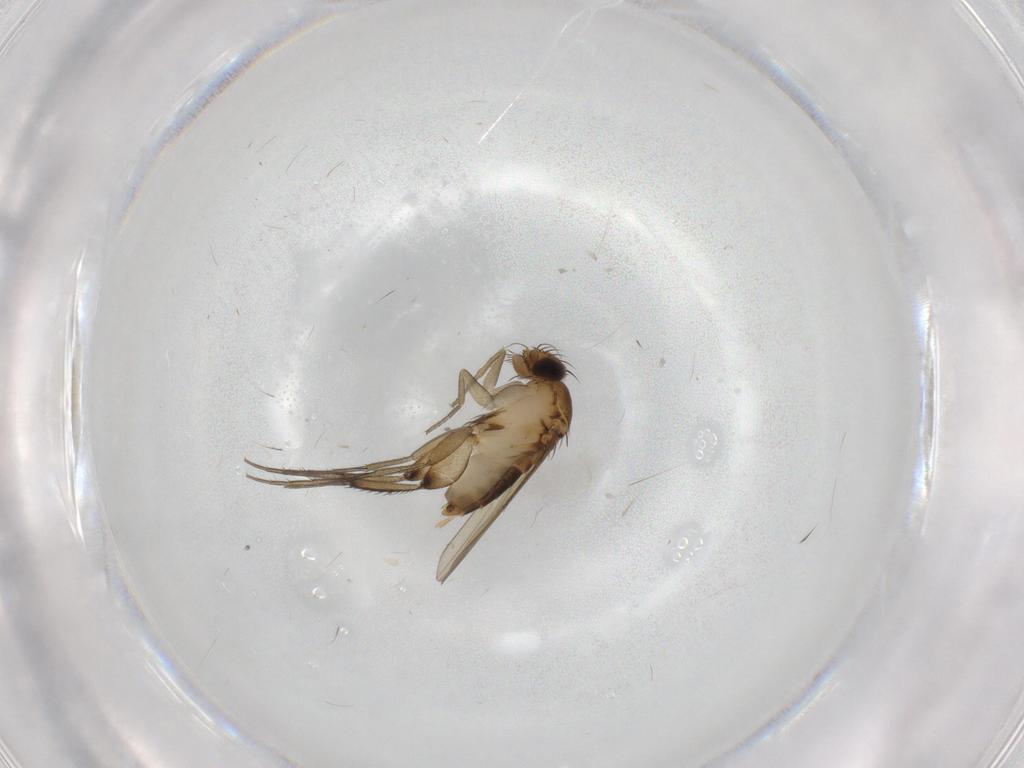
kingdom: Animalia
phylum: Arthropoda
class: Insecta
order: Diptera
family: Phoridae
